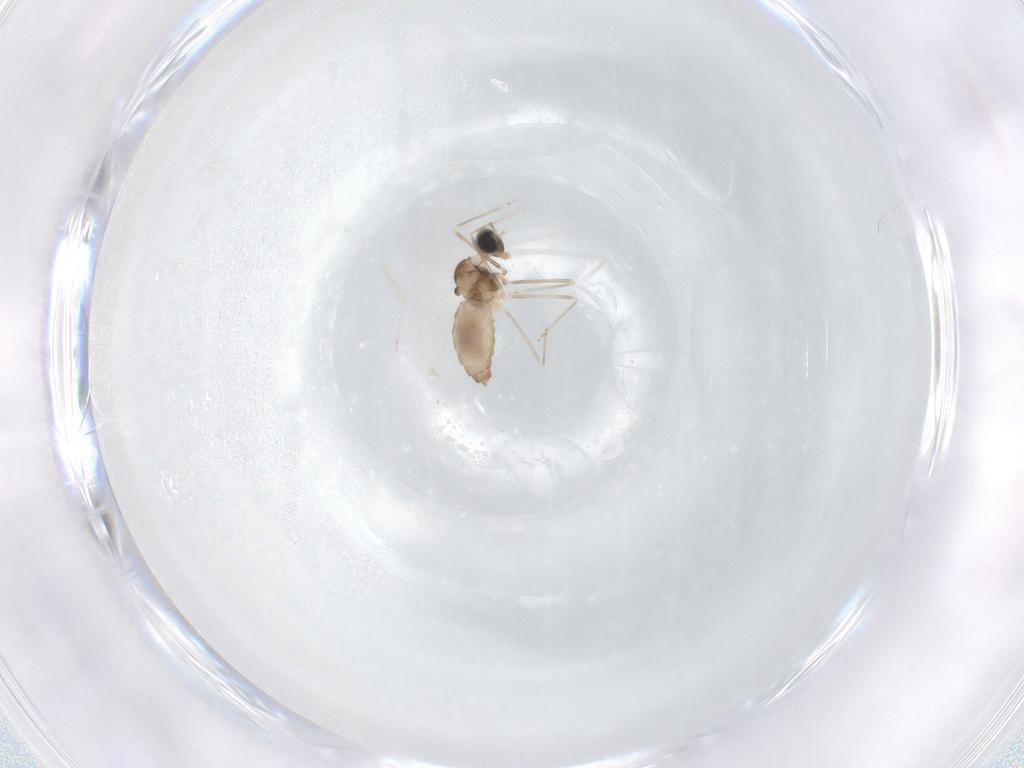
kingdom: Animalia
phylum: Arthropoda
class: Insecta
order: Diptera
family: Cecidomyiidae
